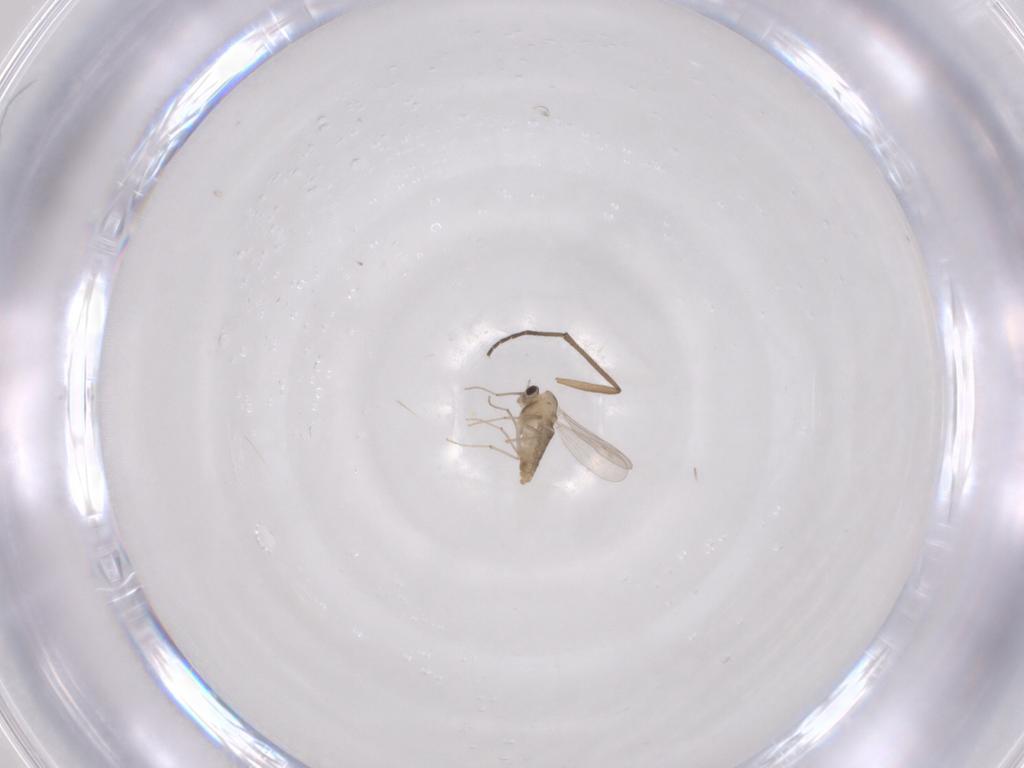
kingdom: Animalia
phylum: Arthropoda
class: Insecta
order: Diptera
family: Chironomidae
